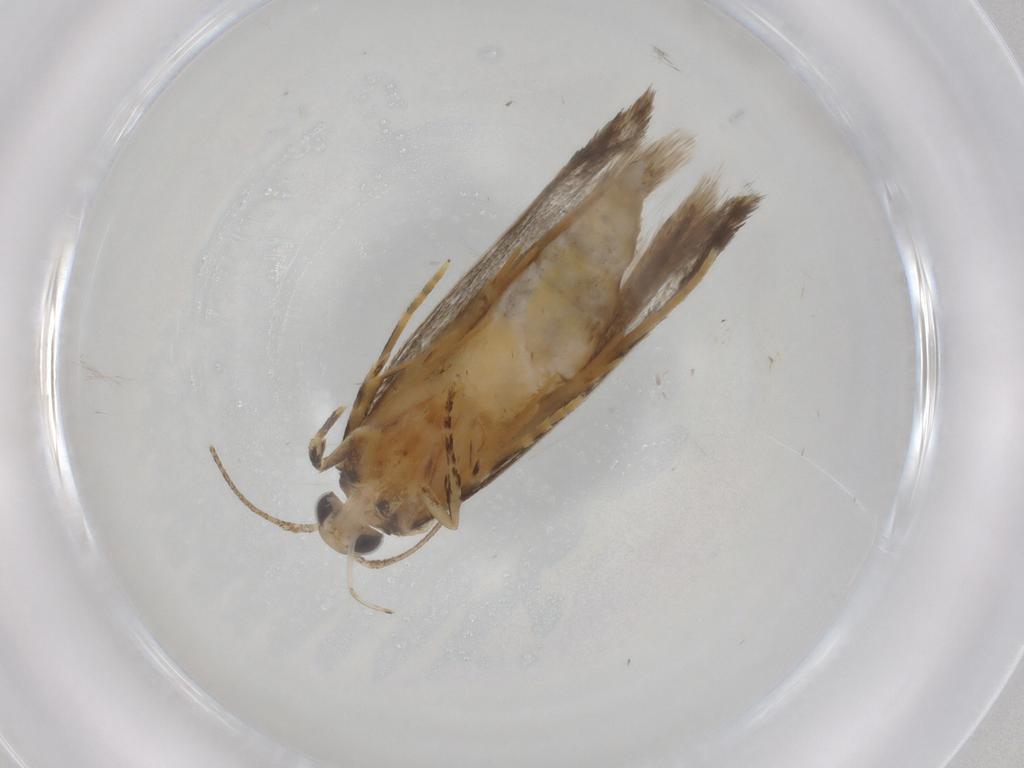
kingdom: Animalia
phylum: Arthropoda
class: Insecta
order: Lepidoptera
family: Autostichidae
